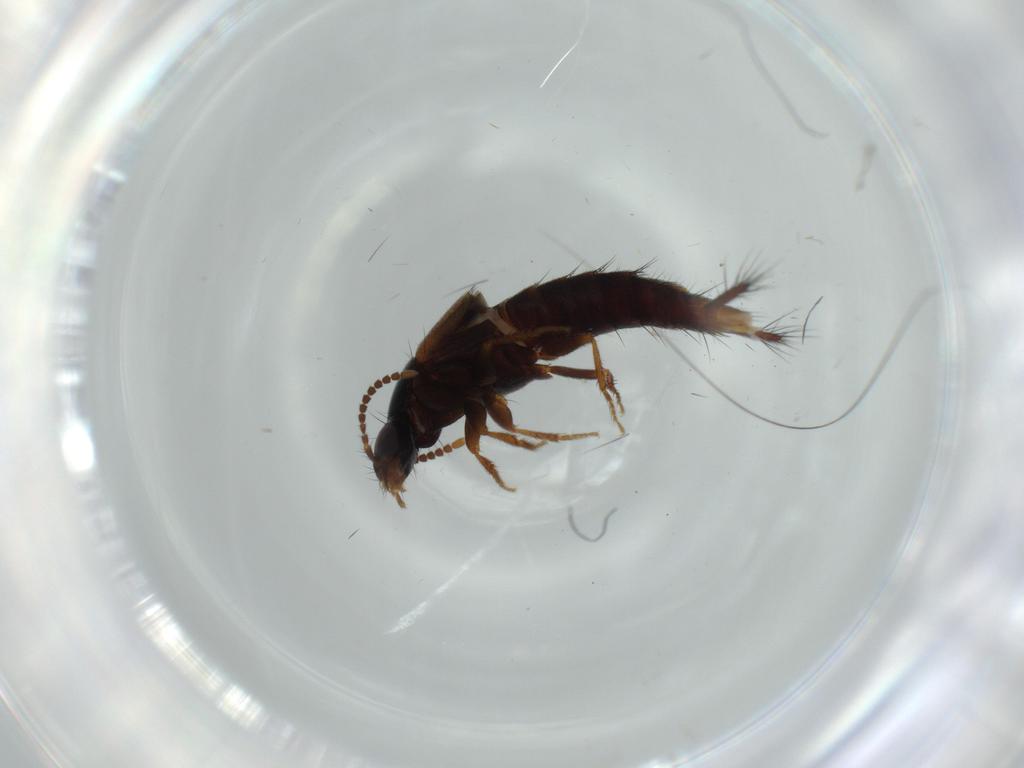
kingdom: Animalia
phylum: Arthropoda
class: Insecta
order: Coleoptera
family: Staphylinidae
